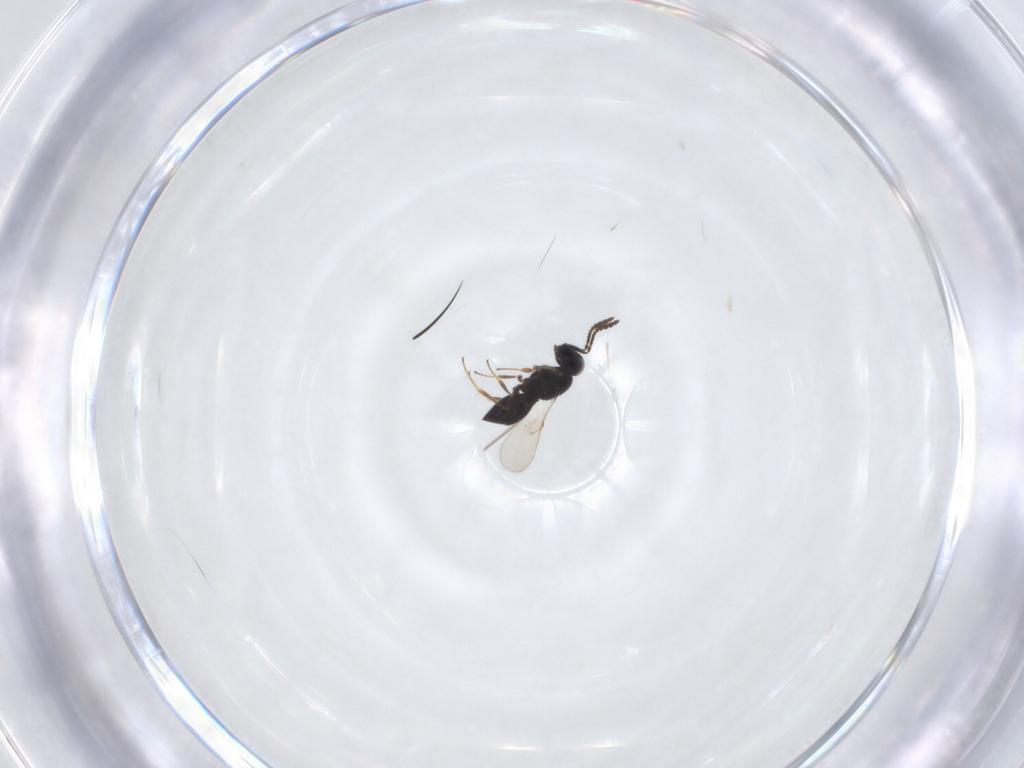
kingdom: Animalia
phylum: Arthropoda
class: Insecta
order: Hymenoptera
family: Scelionidae
